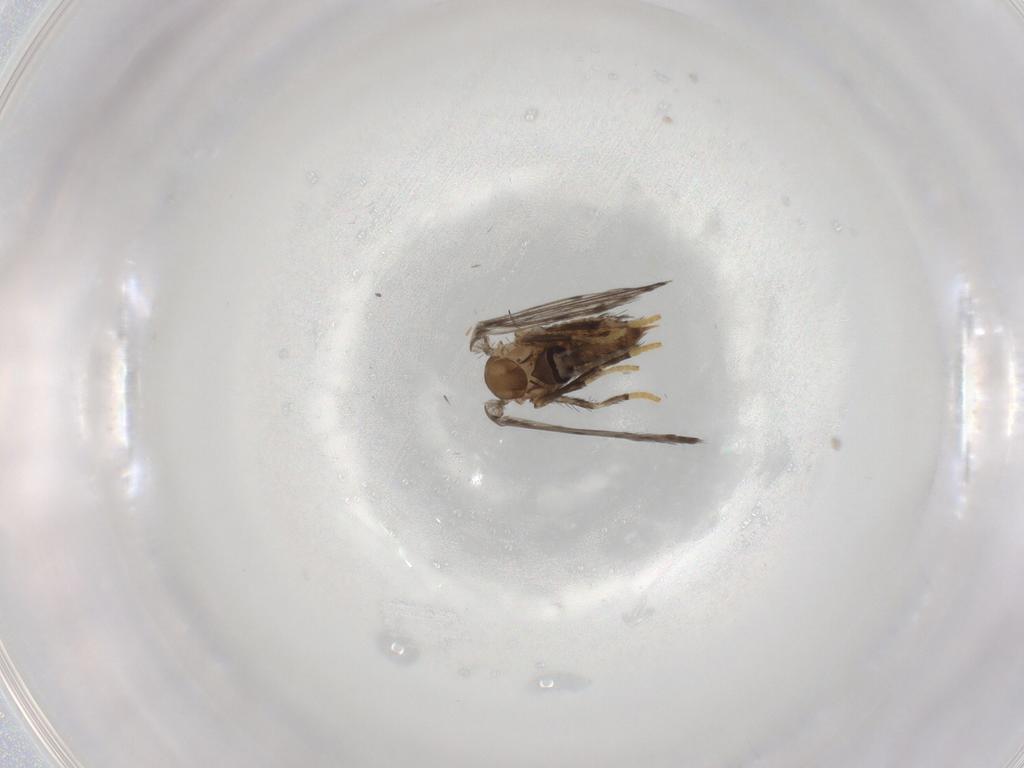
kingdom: Animalia
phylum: Arthropoda
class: Insecta
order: Diptera
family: Psychodidae
